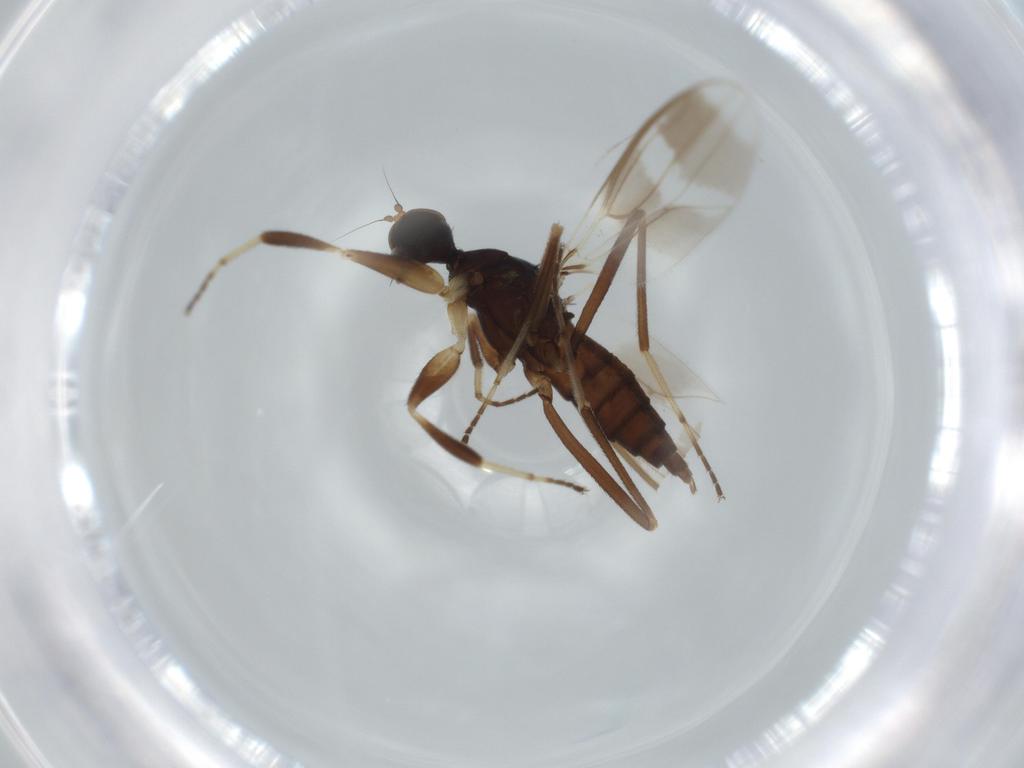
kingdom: Animalia
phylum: Arthropoda
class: Insecta
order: Diptera
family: Hybotidae
